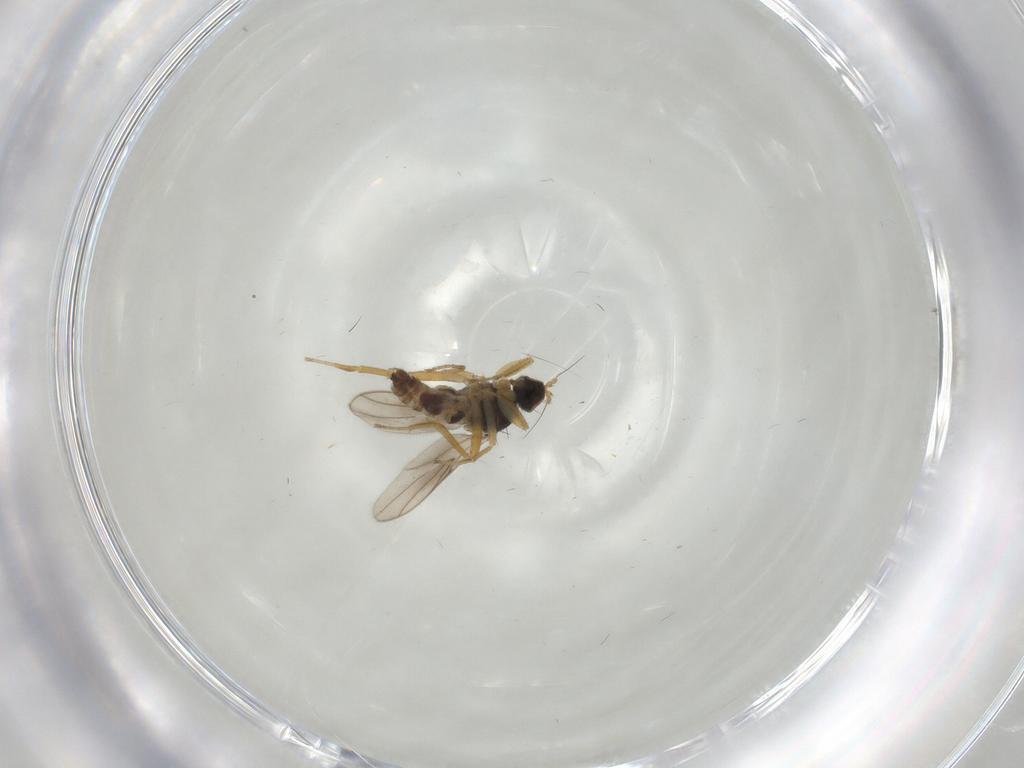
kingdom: Animalia
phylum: Arthropoda
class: Insecta
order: Diptera
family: Hybotidae
